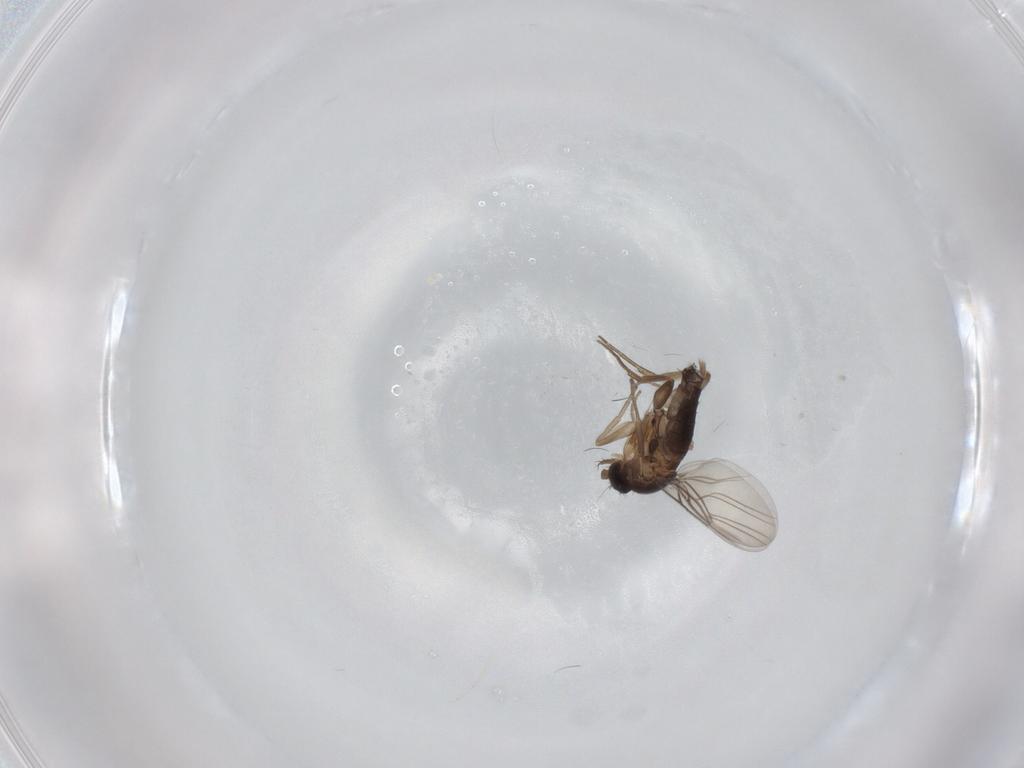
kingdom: Animalia
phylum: Arthropoda
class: Insecta
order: Diptera
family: Phoridae
